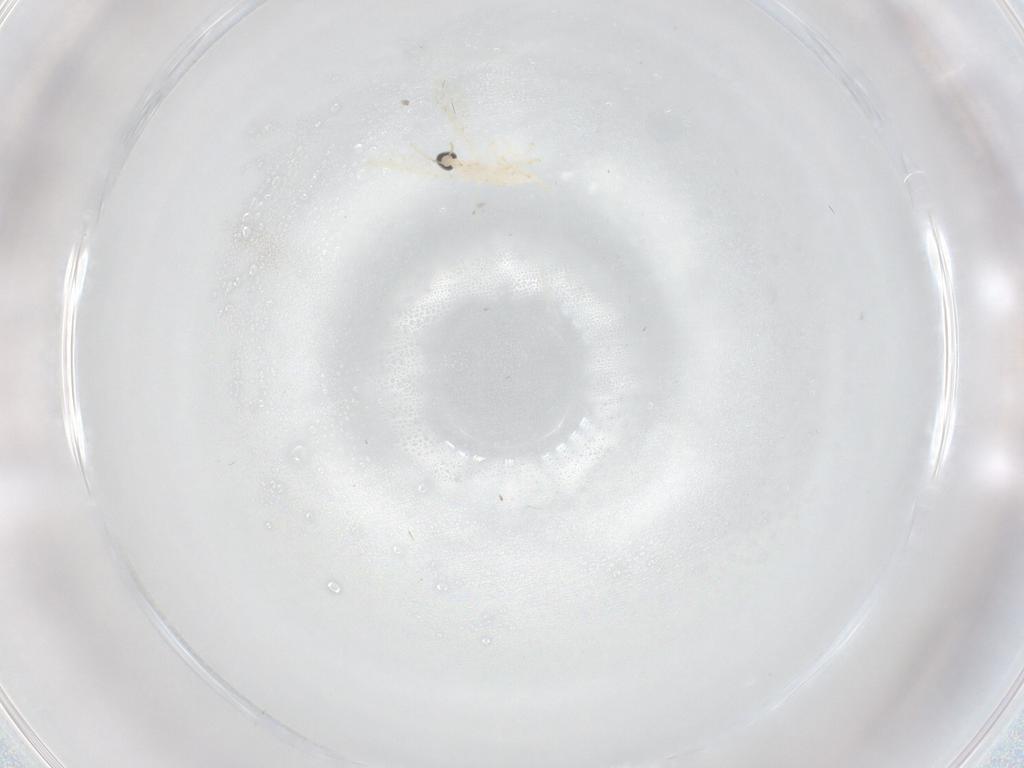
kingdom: Animalia
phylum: Arthropoda
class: Insecta
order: Diptera
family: Cecidomyiidae
